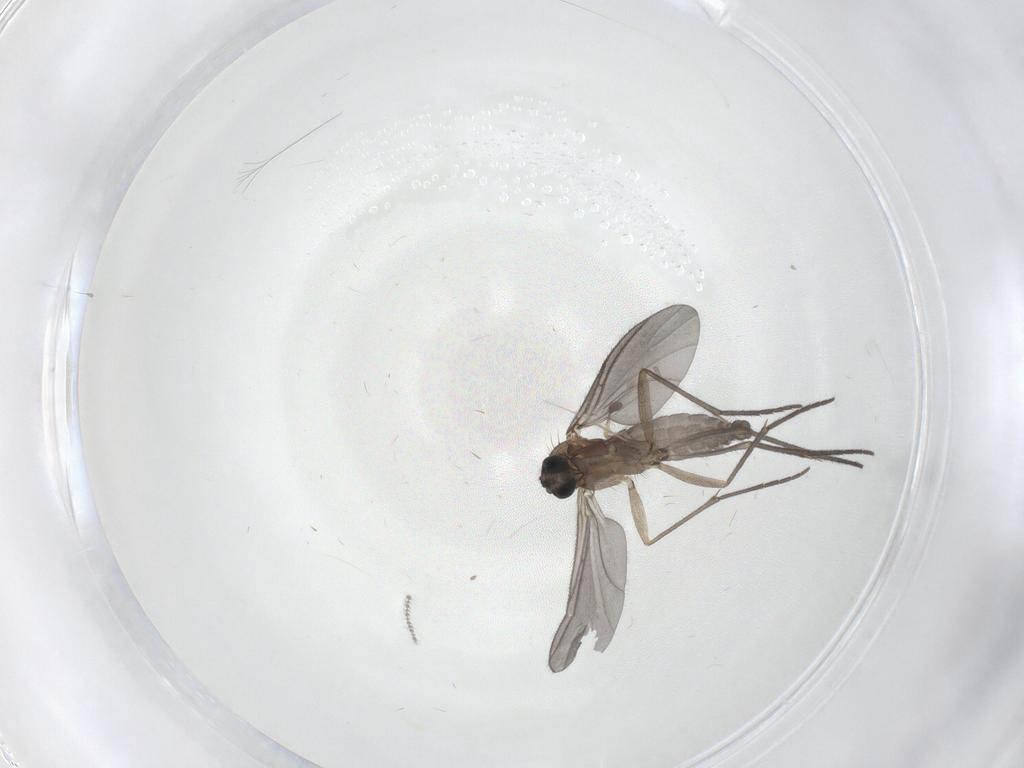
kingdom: Animalia
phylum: Arthropoda
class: Insecta
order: Diptera
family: Sciaridae
